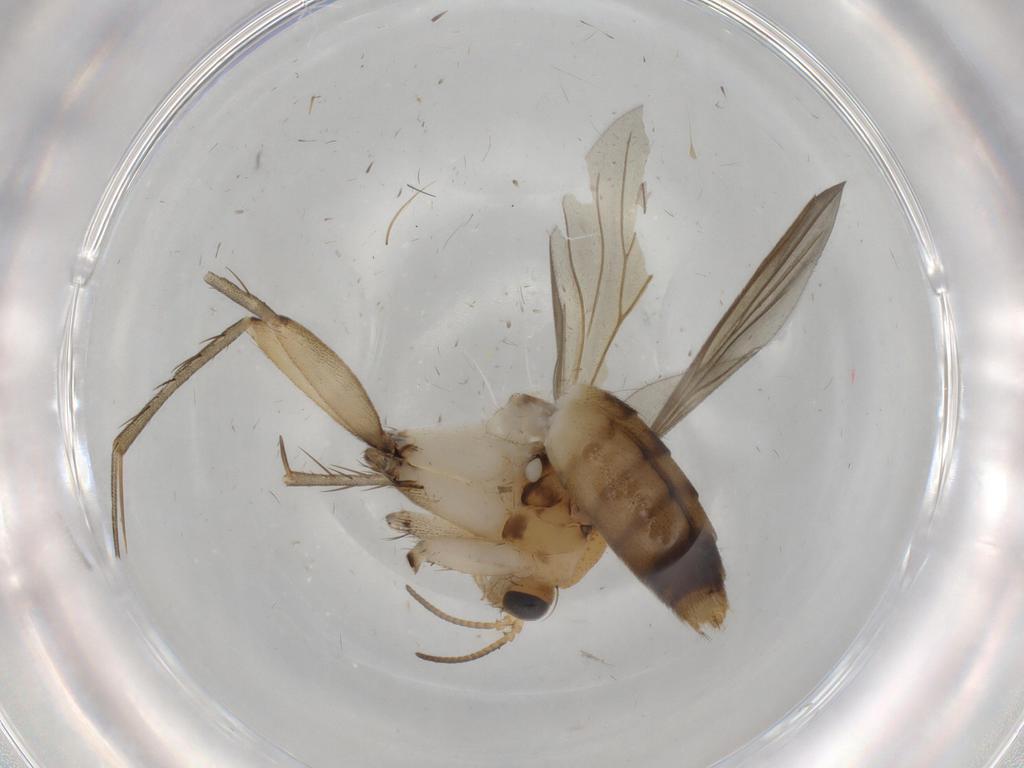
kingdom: Animalia
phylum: Arthropoda
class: Insecta
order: Diptera
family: Mycetophilidae
